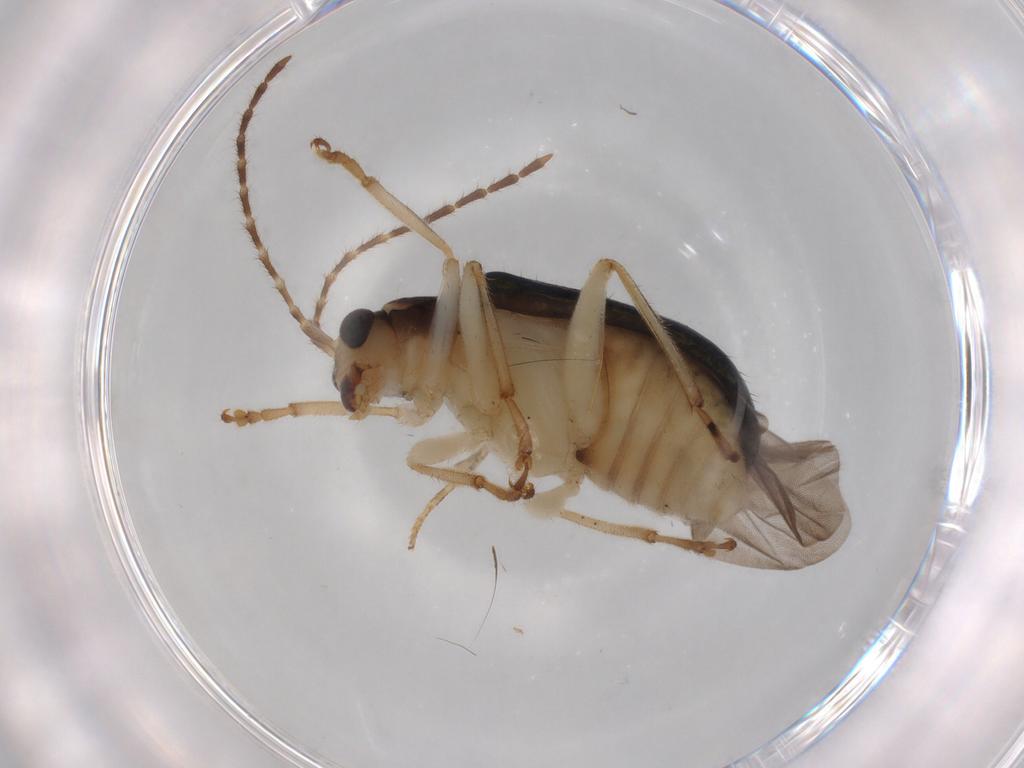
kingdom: Animalia
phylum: Arthropoda
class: Insecta
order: Coleoptera
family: Chrysomelidae
